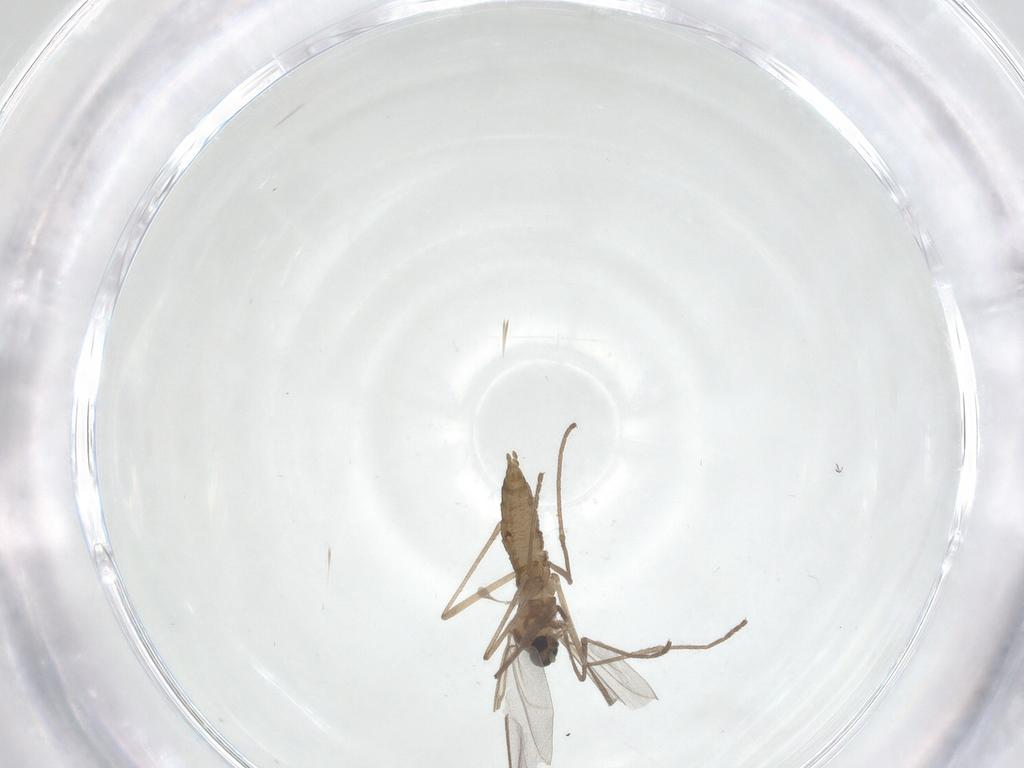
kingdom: Animalia
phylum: Arthropoda
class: Insecta
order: Diptera
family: Cecidomyiidae
